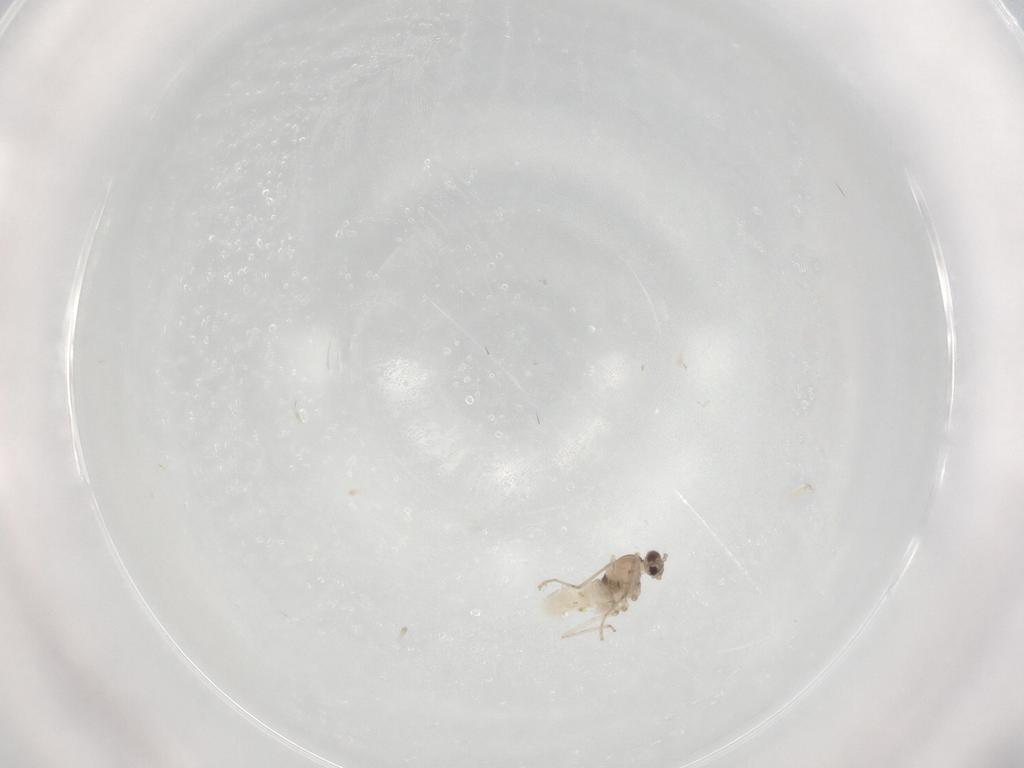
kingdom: Animalia
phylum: Arthropoda
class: Insecta
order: Diptera
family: Cecidomyiidae
